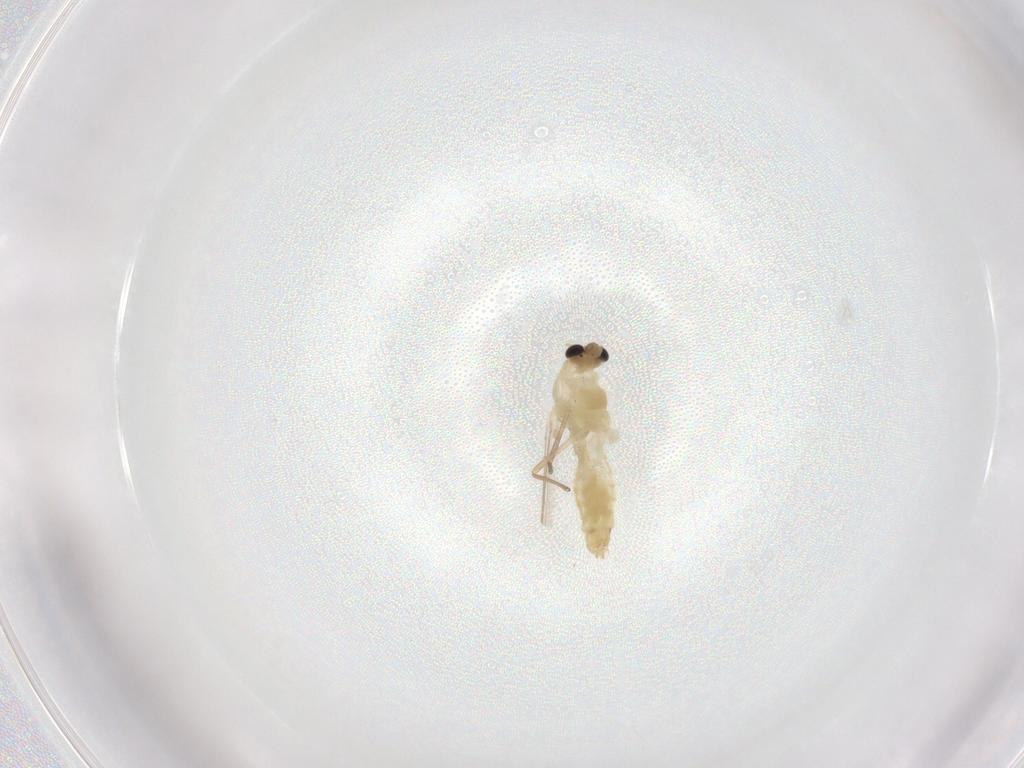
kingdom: Animalia
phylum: Arthropoda
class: Insecta
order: Diptera
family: Chironomidae
